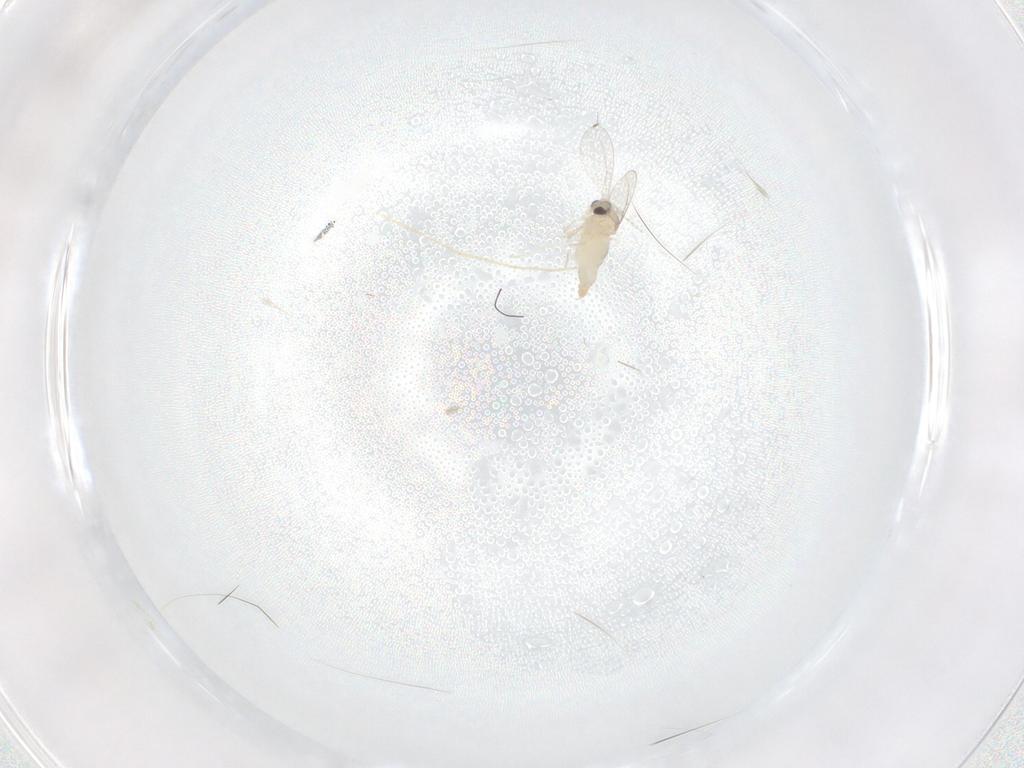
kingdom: Animalia
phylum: Arthropoda
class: Insecta
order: Diptera
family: Cecidomyiidae
